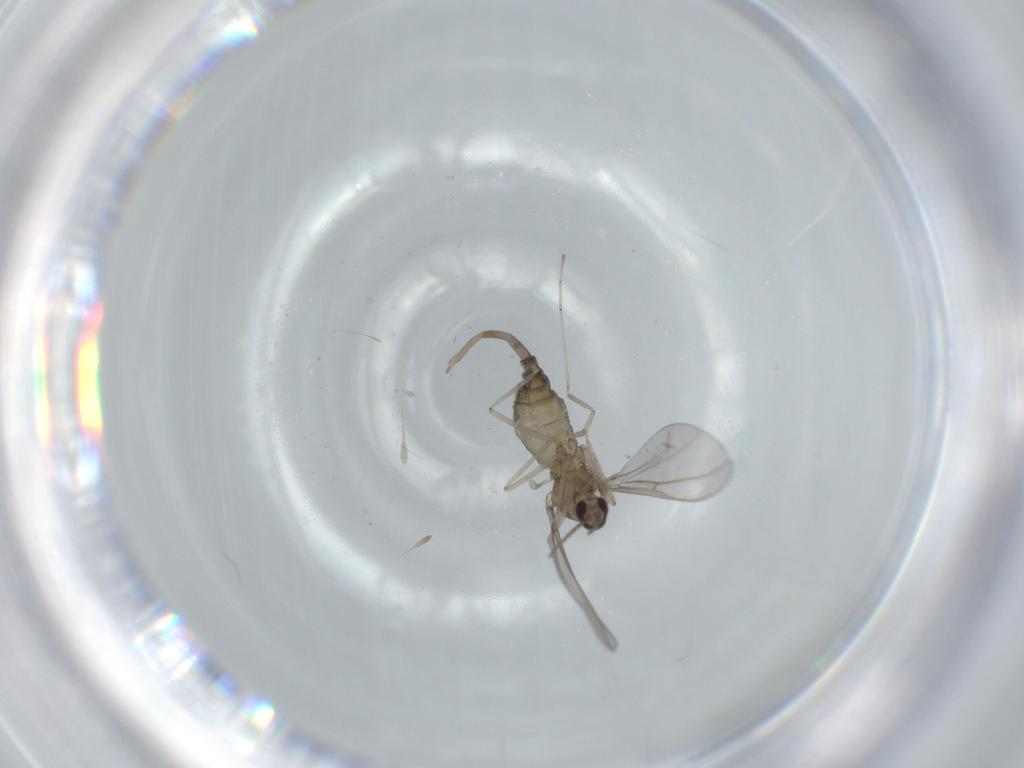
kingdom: Animalia
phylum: Arthropoda
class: Insecta
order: Diptera
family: Cecidomyiidae
